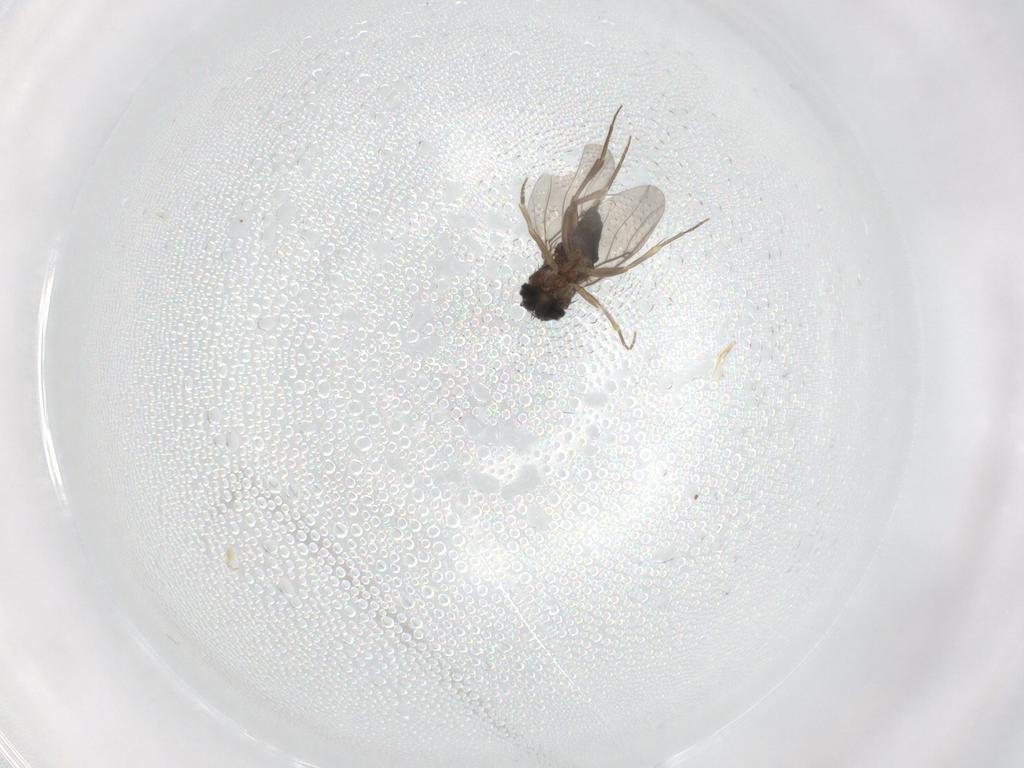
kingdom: Animalia
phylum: Arthropoda
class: Insecta
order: Diptera
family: Phoridae
